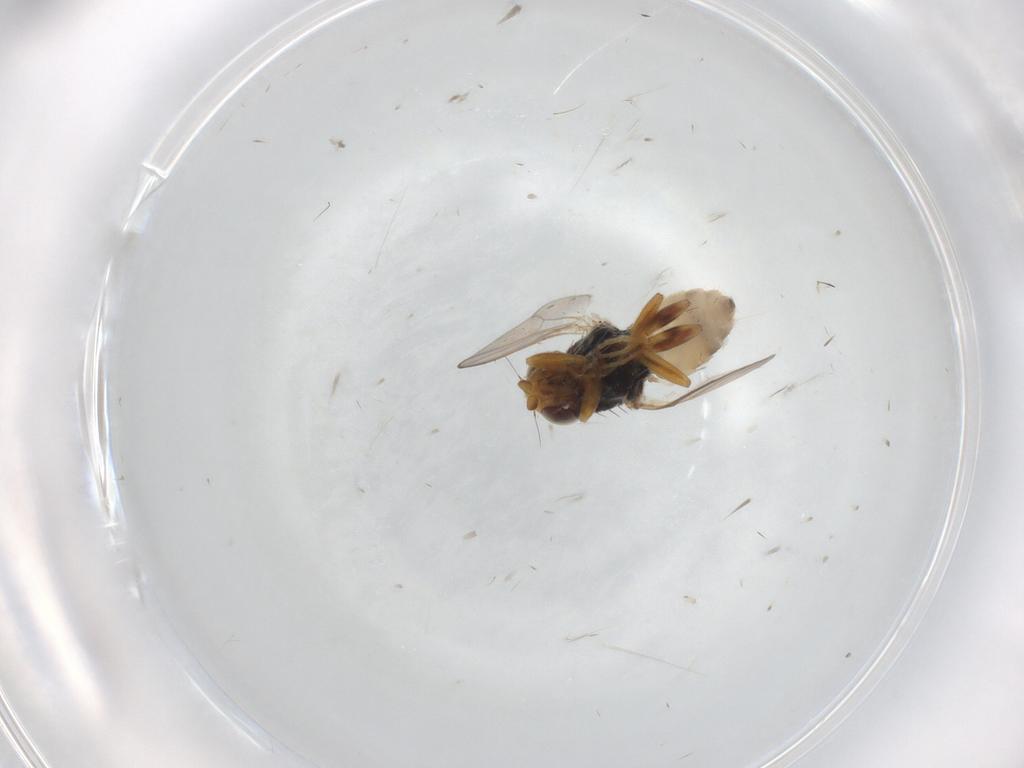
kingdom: Animalia
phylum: Arthropoda
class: Insecta
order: Diptera
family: Chloropidae
